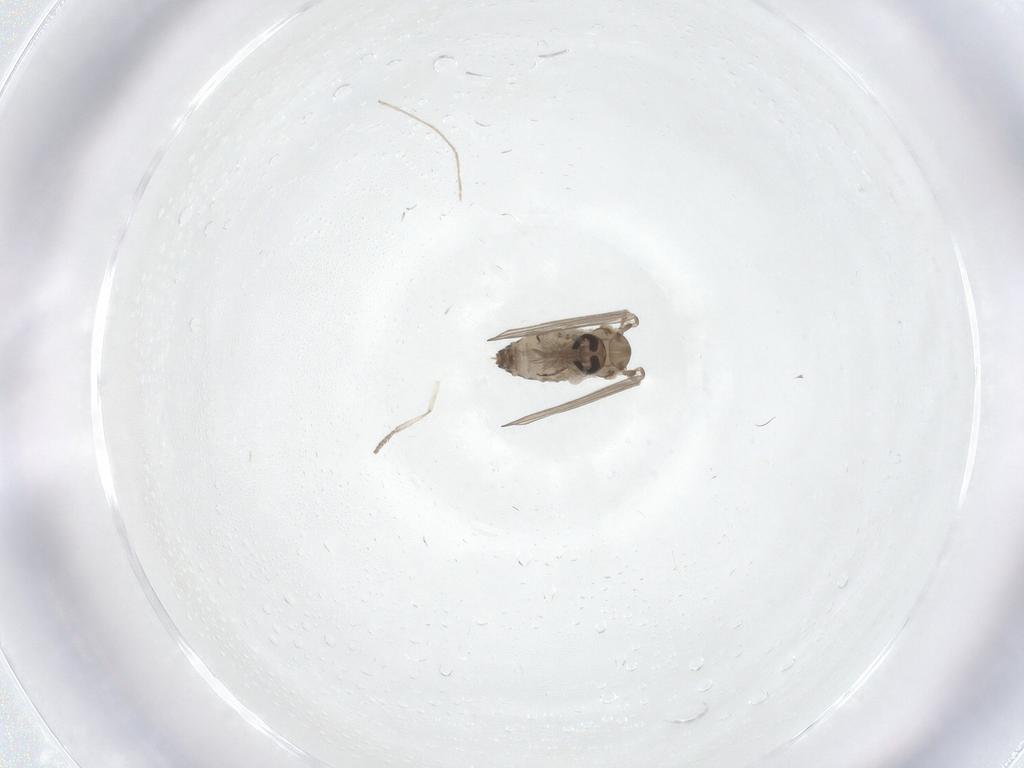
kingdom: Animalia
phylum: Arthropoda
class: Insecta
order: Diptera
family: Psychodidae
